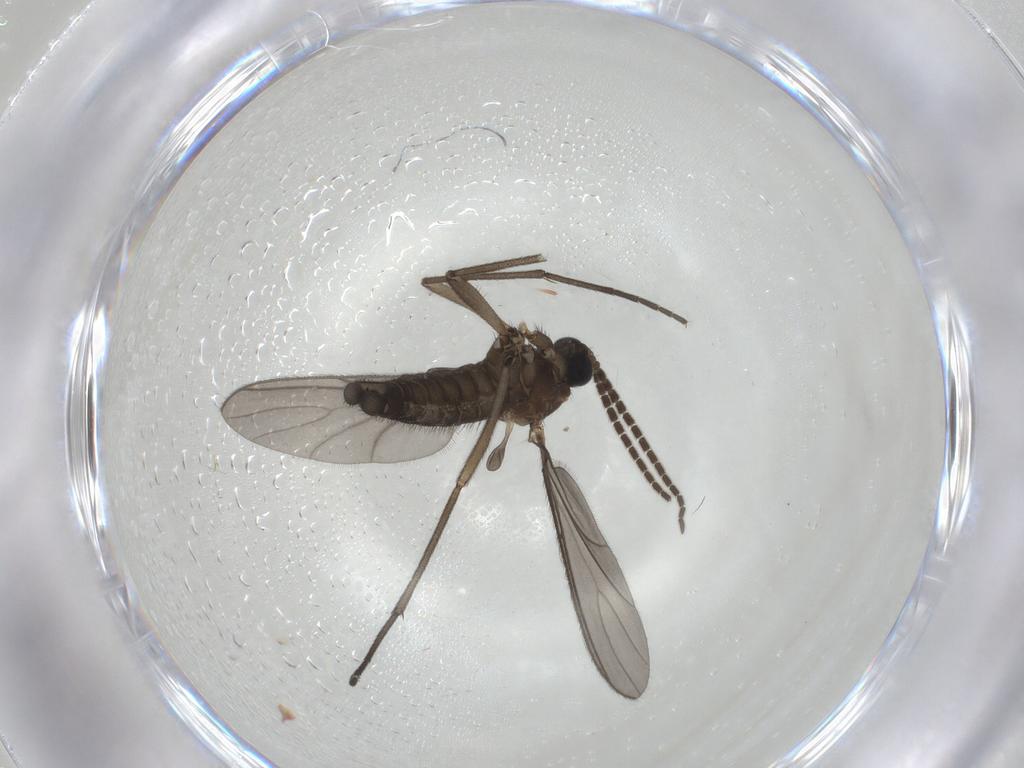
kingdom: Animalia
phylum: Arthropoda
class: Insecta
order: Diptera
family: Sciaridae
